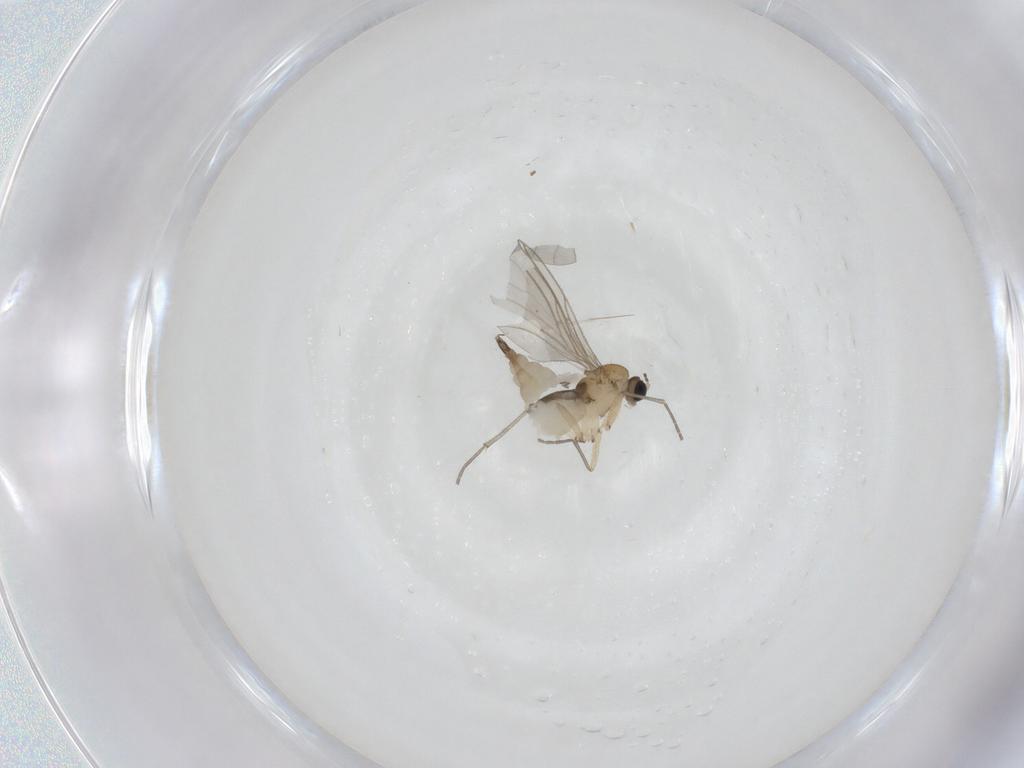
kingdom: Animalia
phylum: Arthropoda
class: Insecta
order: Diptera
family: Sciaridae
